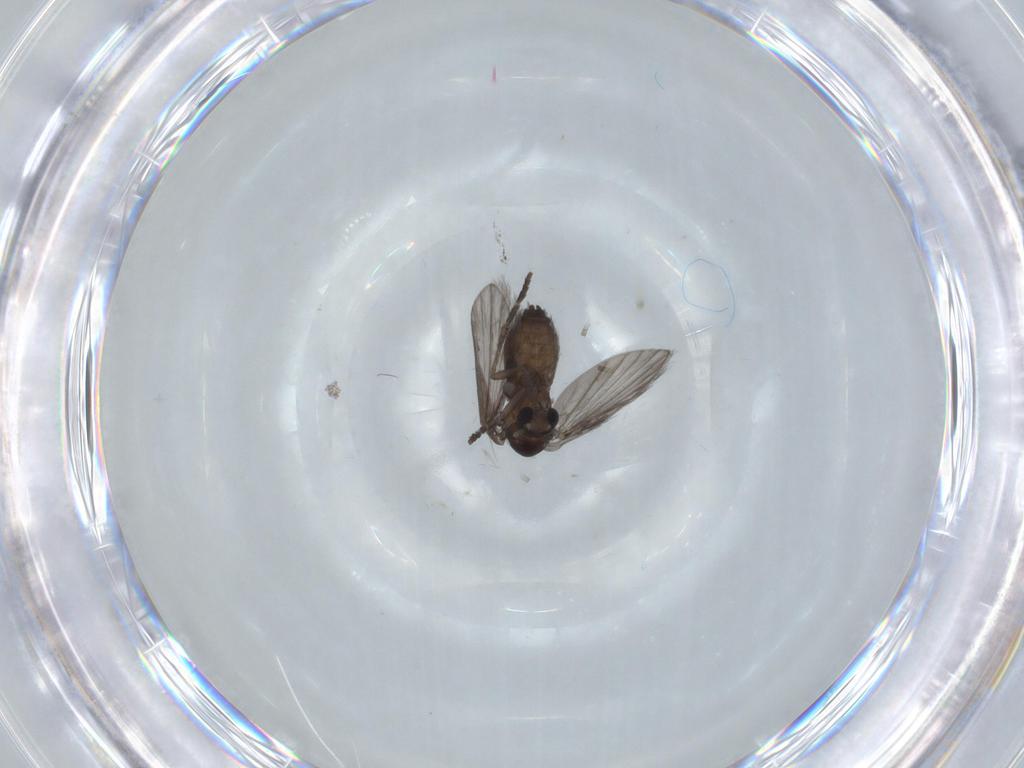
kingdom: Animalia
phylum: Arthropoda
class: Insecta
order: Diptera
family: Psychodidae
